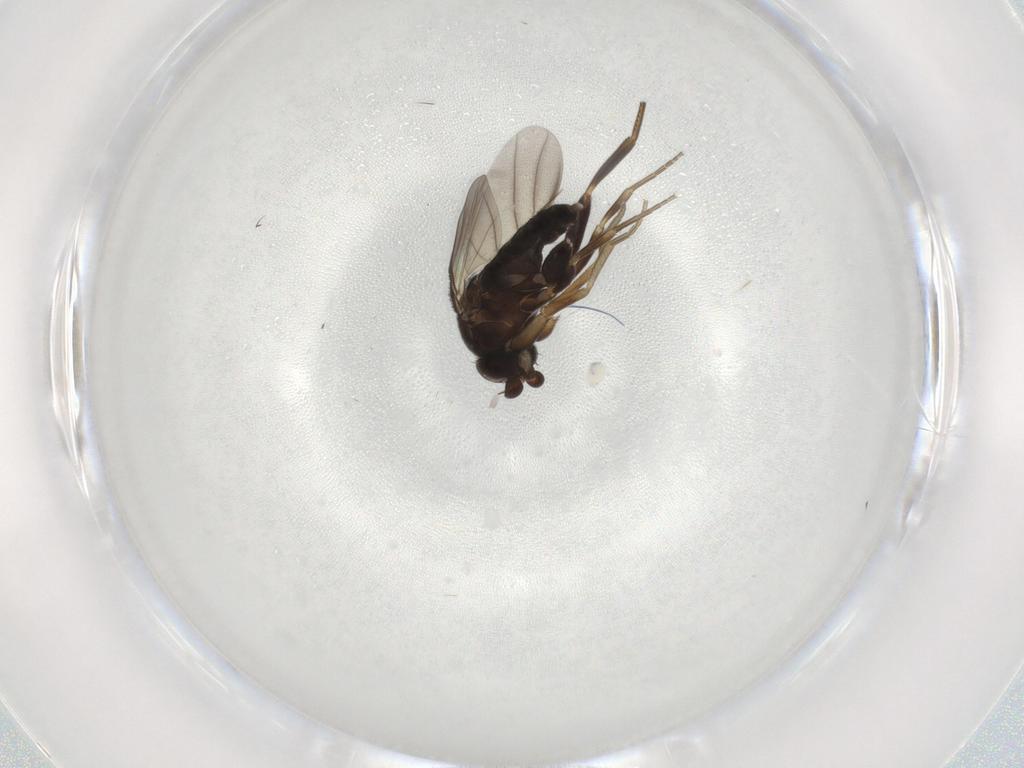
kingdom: Animalia
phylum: Arthropoda
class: Insecta
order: Diptera
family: Phoridae
